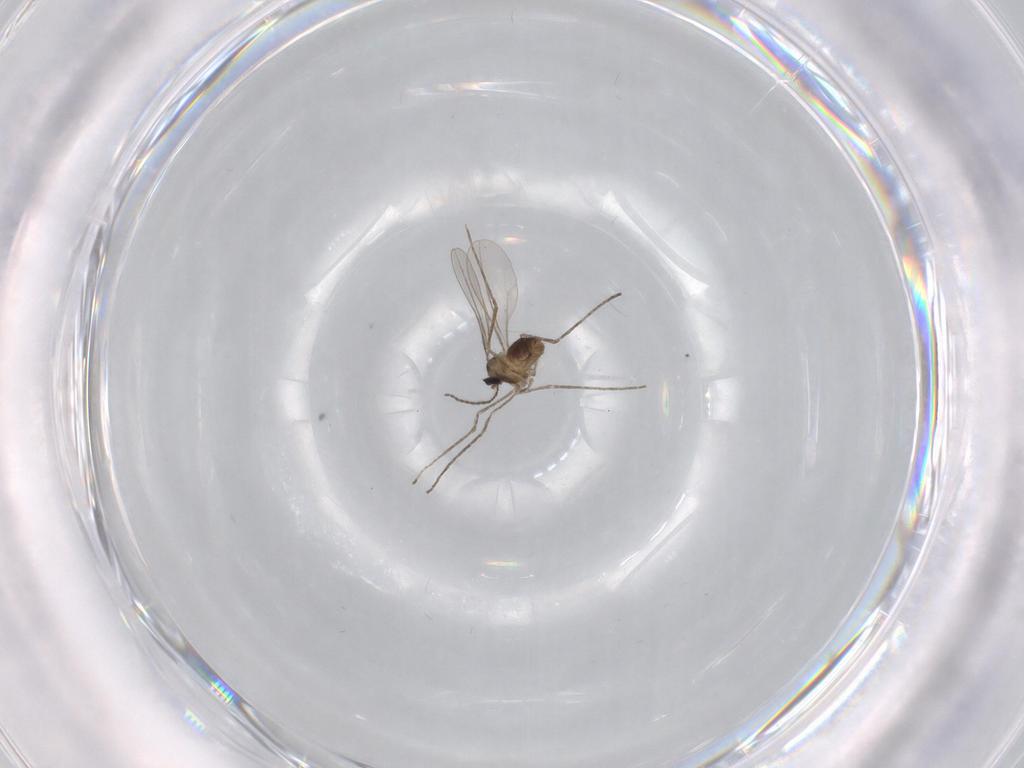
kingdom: Animalia
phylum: Arthropoda
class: Insecta
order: Diptera
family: Cecidomyiidae
